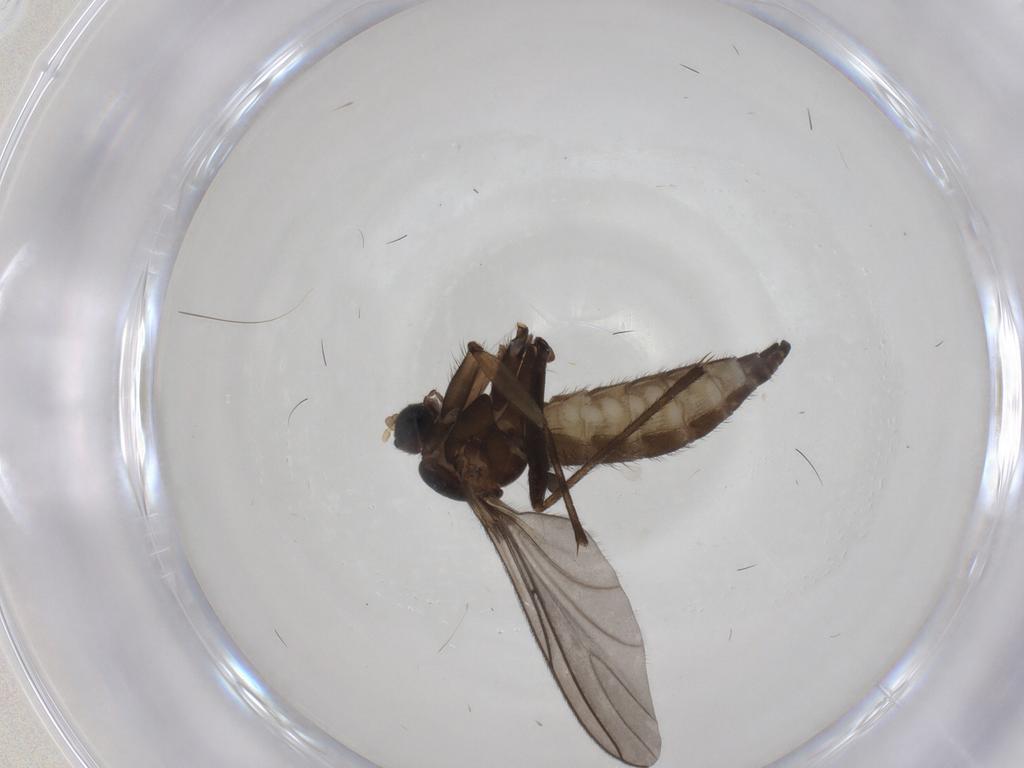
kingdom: Animalia
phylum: Arthropoda
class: Insecta
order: Diptera
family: Sciaridae
